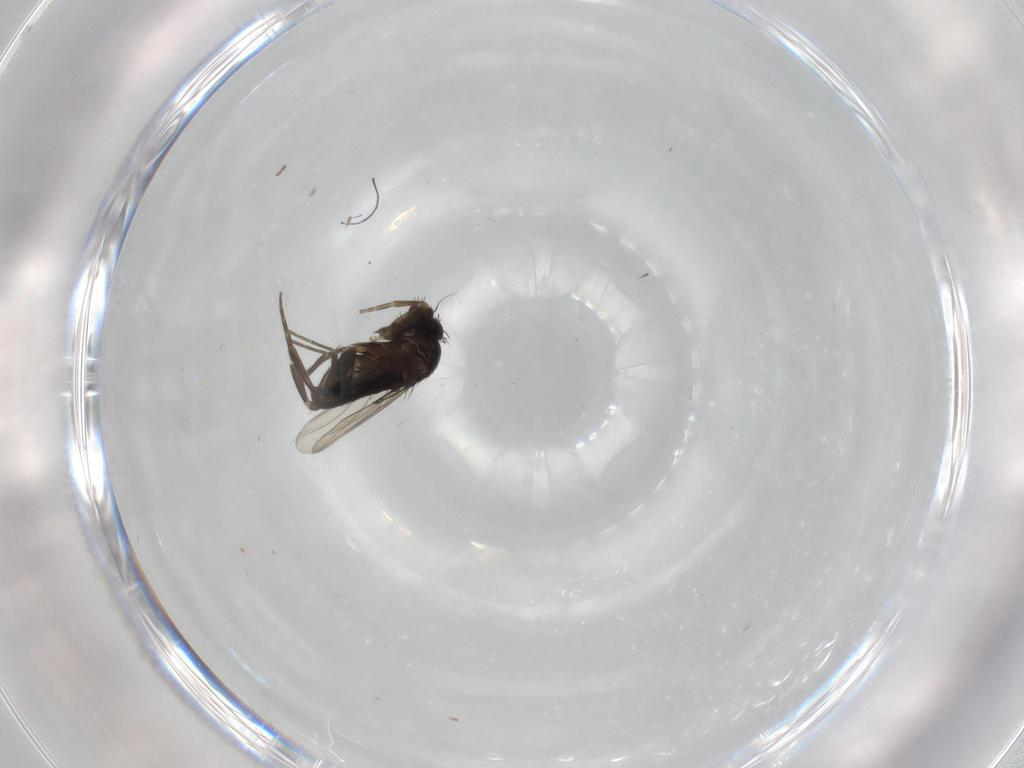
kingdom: Animalia
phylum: Arthropoda
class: Insecta
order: Diptera
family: Phoridae
